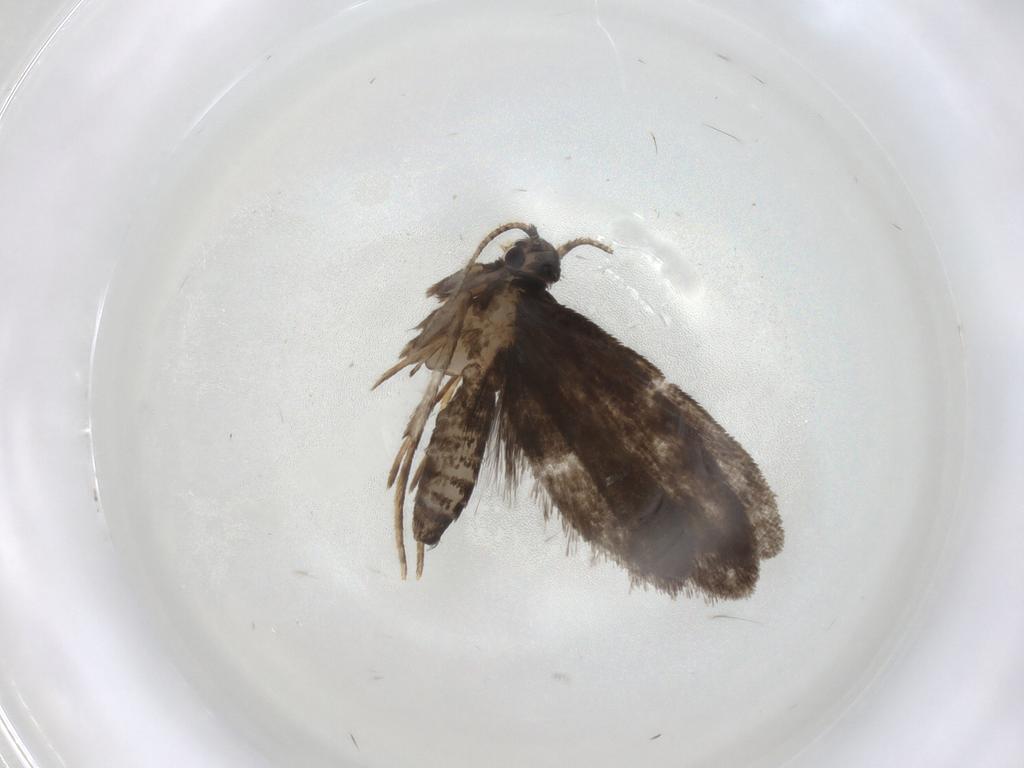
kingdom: Animalia
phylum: Arthropoda
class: Insecta
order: Lepidoptera
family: Psychidae
